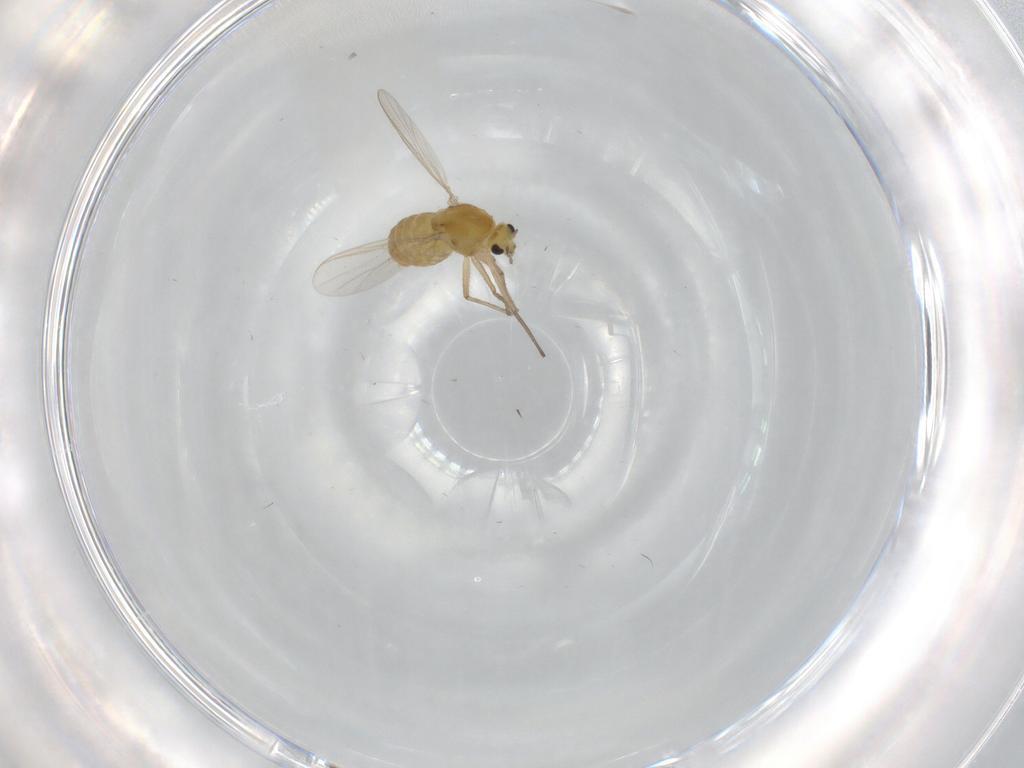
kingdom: Animalia
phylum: Arthropoda
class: Insecta
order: Diptera
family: Chironomidae
